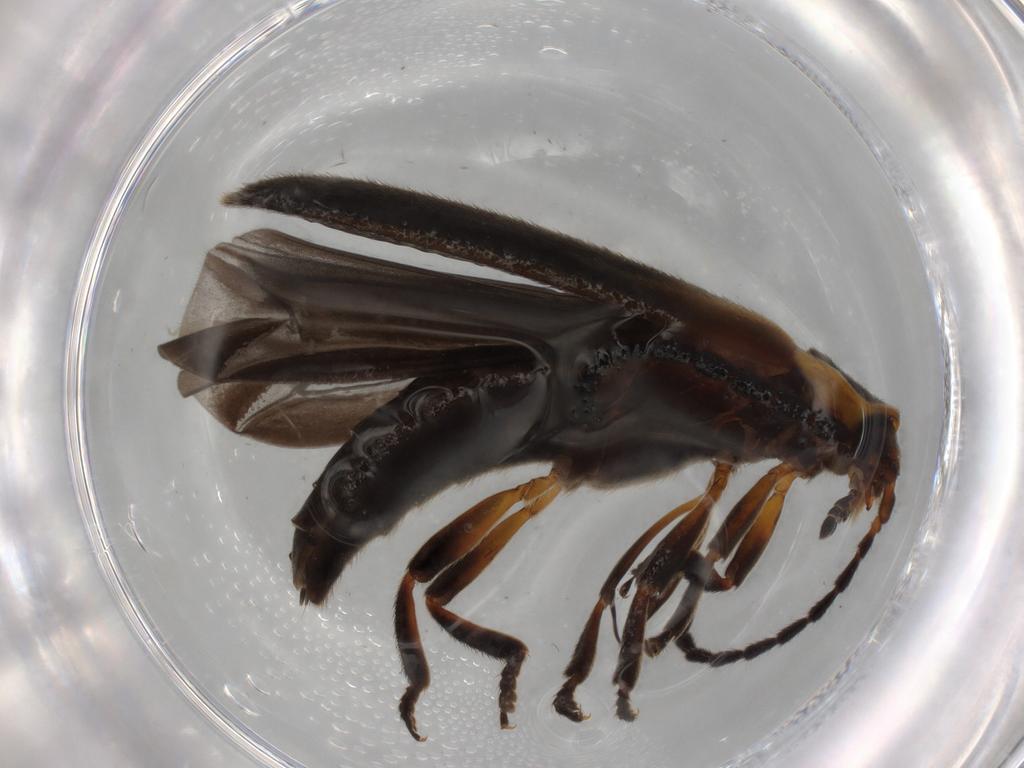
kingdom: Animalia
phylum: Arthropoda
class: Insecta
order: Coleoptera
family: Lycidae
